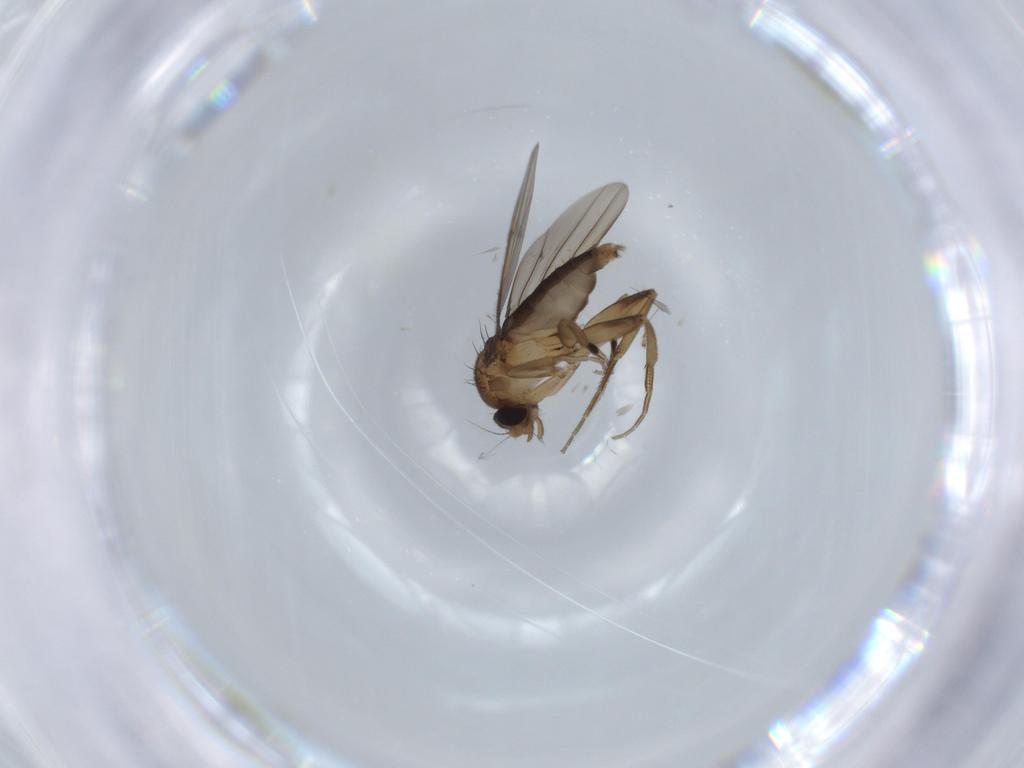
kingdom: Animalia
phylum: Arthropoda
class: Insecta
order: Diptera
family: Phoridae
